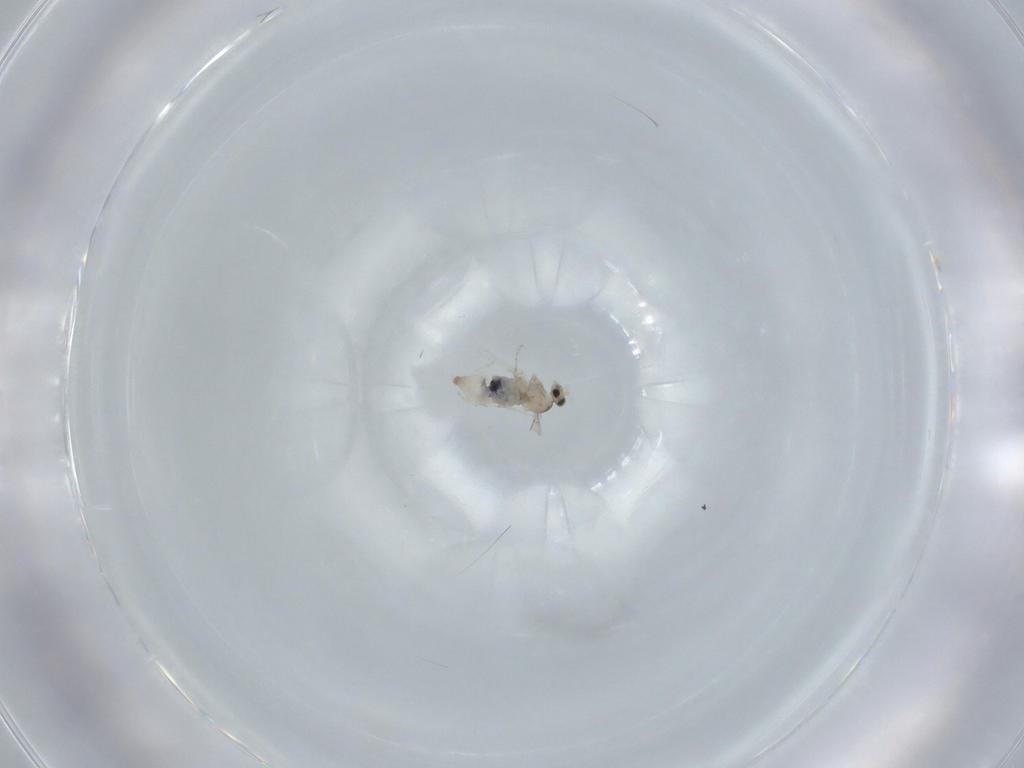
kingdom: Animalia
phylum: Arthropoda
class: Insecta
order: Diptera
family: Cecidomyiidae
